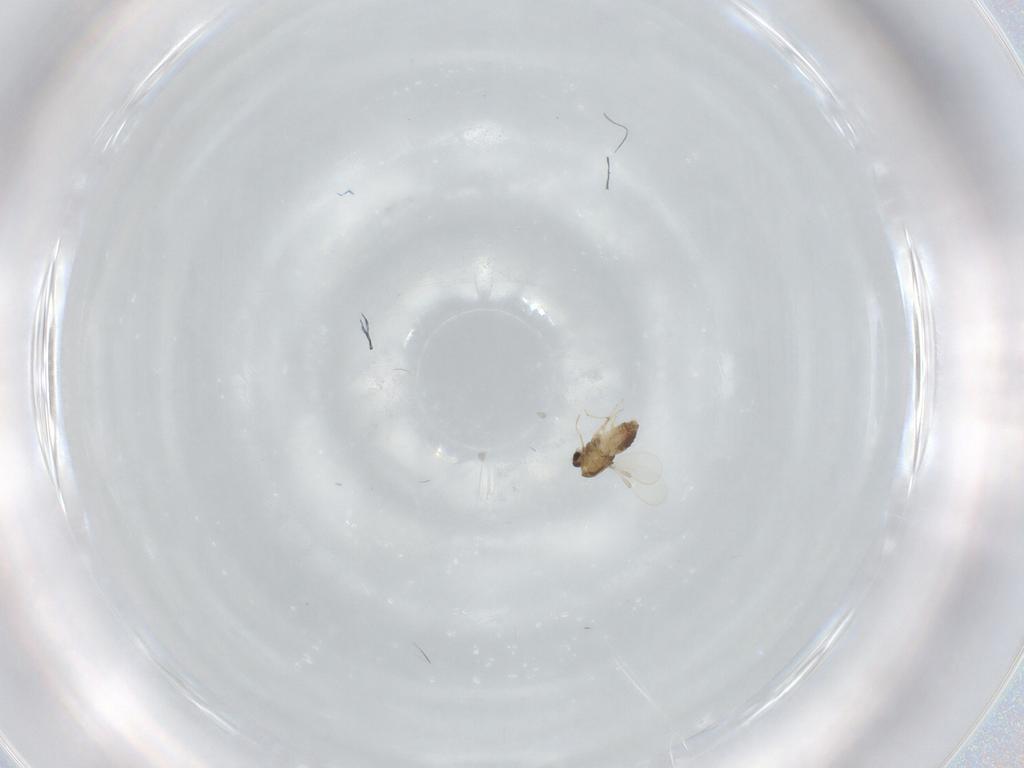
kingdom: Animalia
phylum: Arthropoda
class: Insecta
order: Diptera
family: Chironomidae
